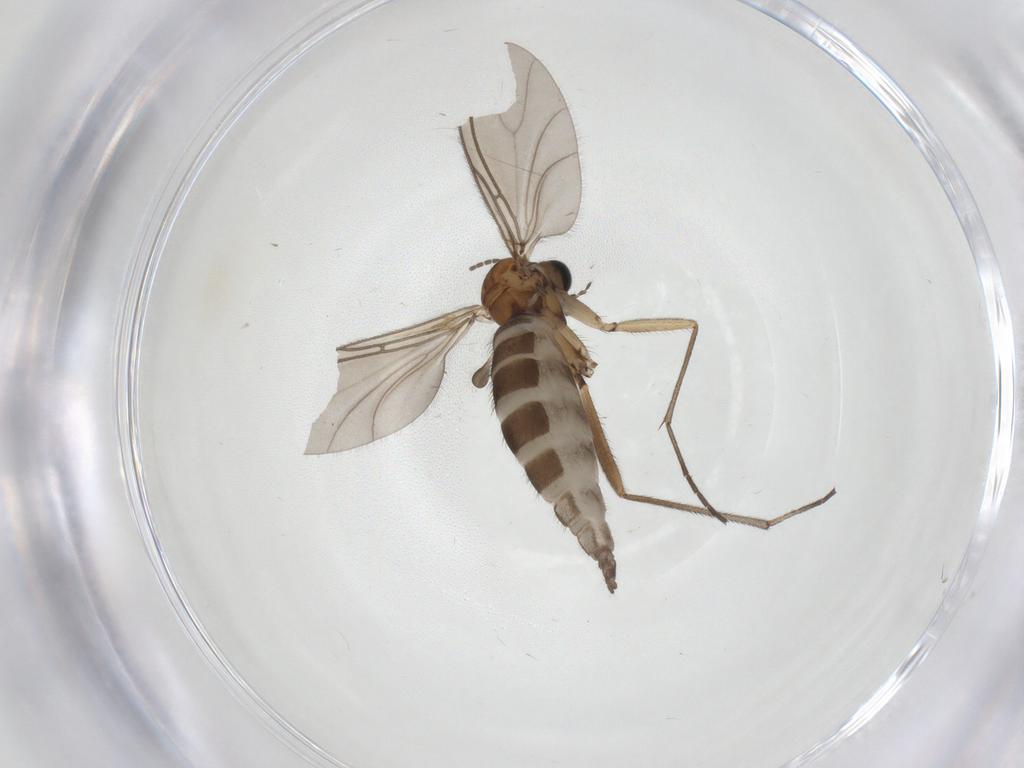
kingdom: Animalia
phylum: Arthropoda
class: Insecta
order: Diptera
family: Sciaridae
